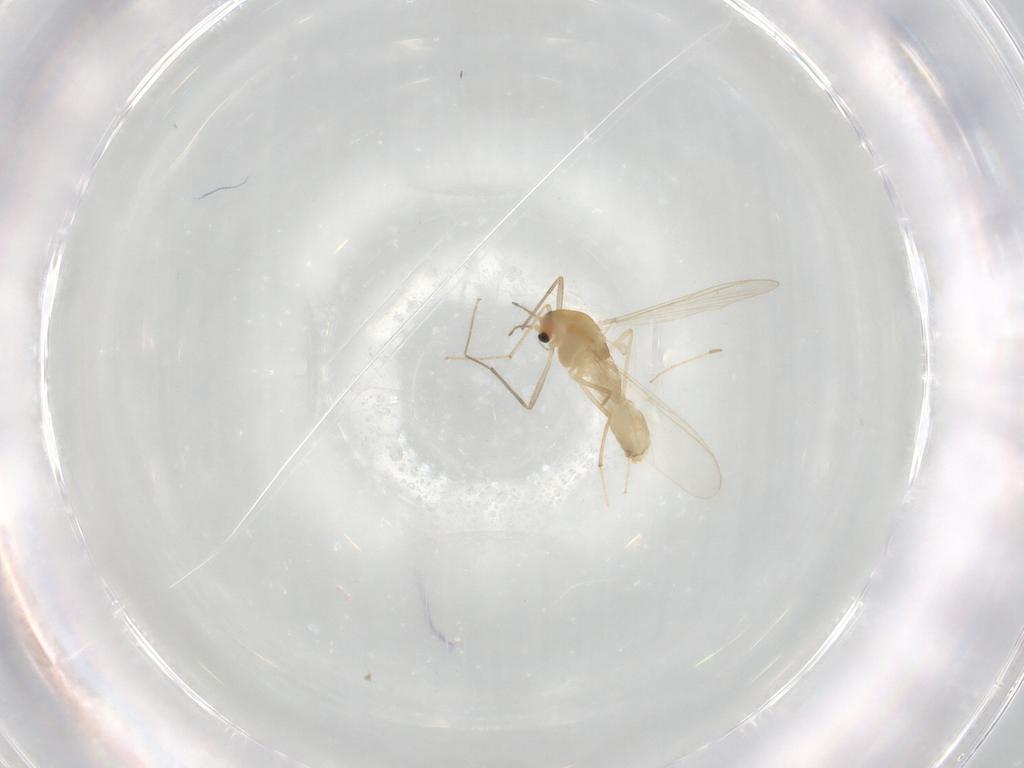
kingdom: Animalia
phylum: Arthropoda
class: Insecta
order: Diptera
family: Chironomidae
